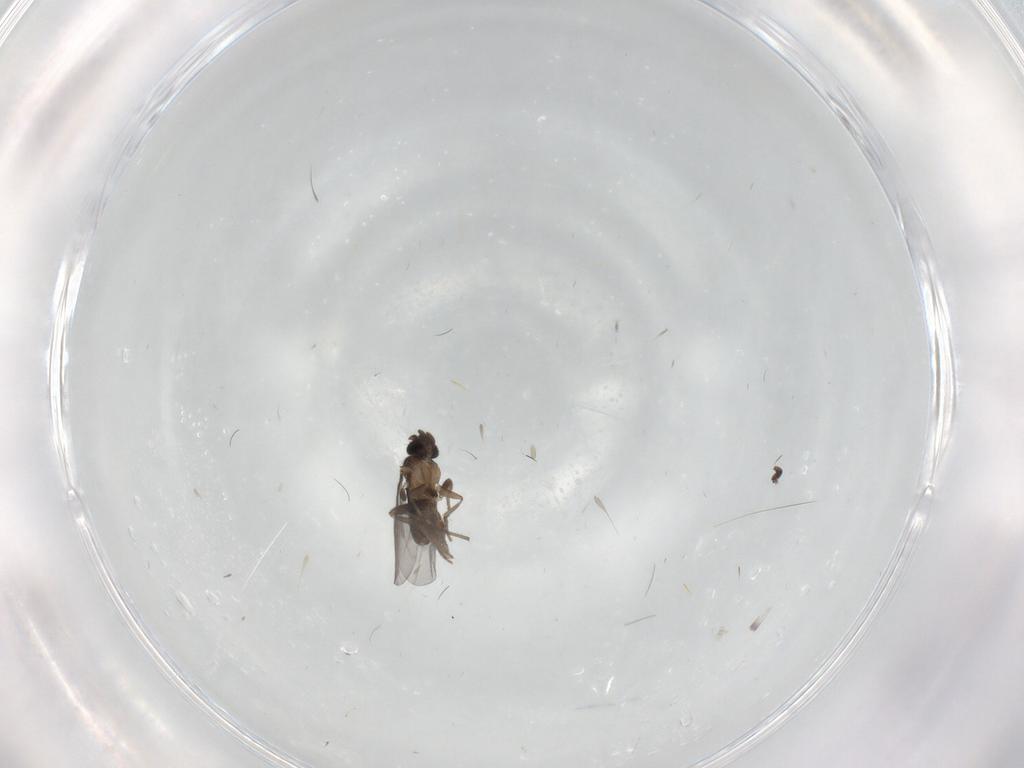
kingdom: Animalia
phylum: Arthropoda
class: Insecta
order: Diptera
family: Chironomidae
